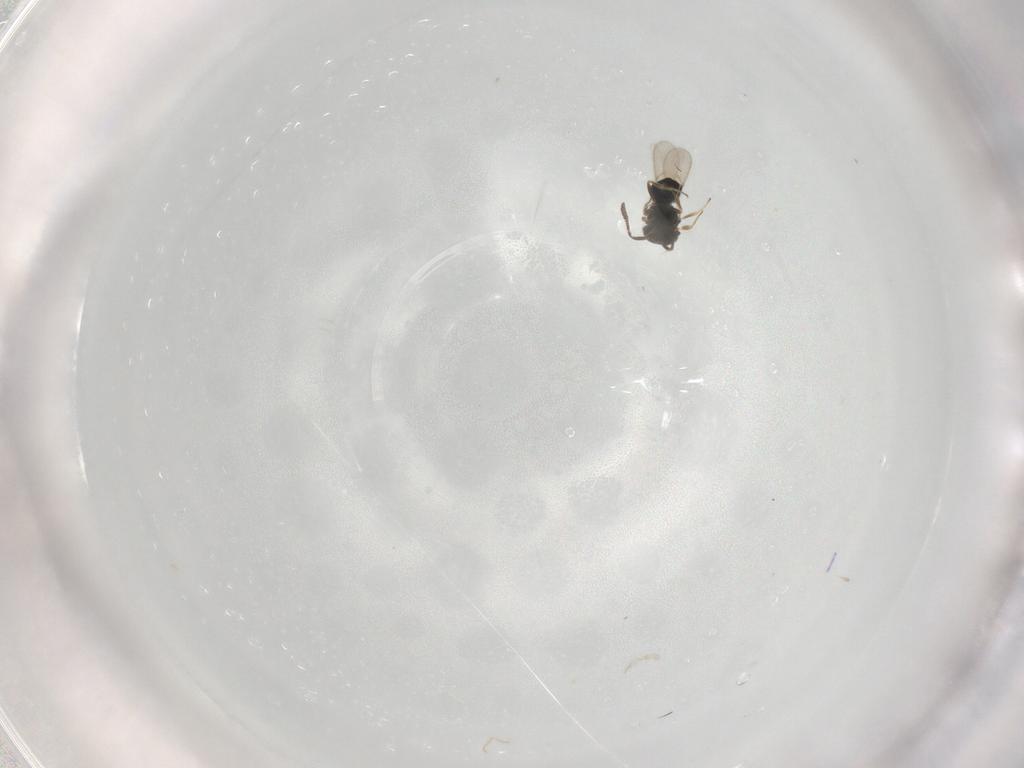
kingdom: Animalia
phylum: Arthropoda
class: Insecta
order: Hymenoptera
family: Scelionidae
